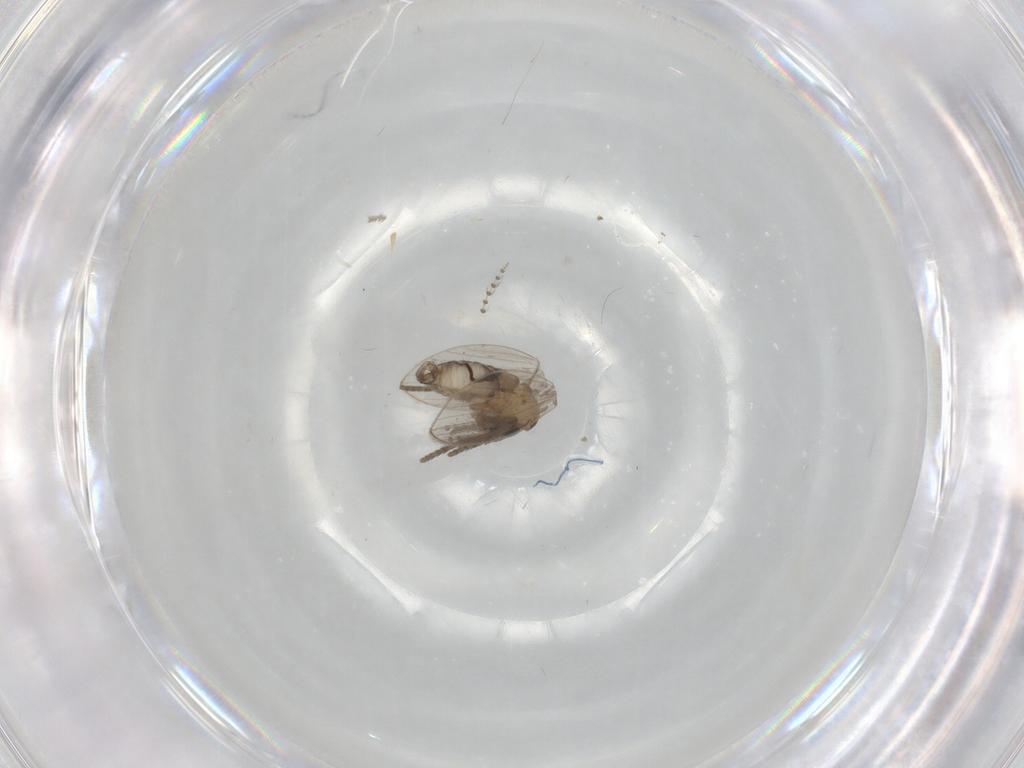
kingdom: Animalia
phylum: Arthropoda
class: Insecta
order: Diptera
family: Psychodidae
